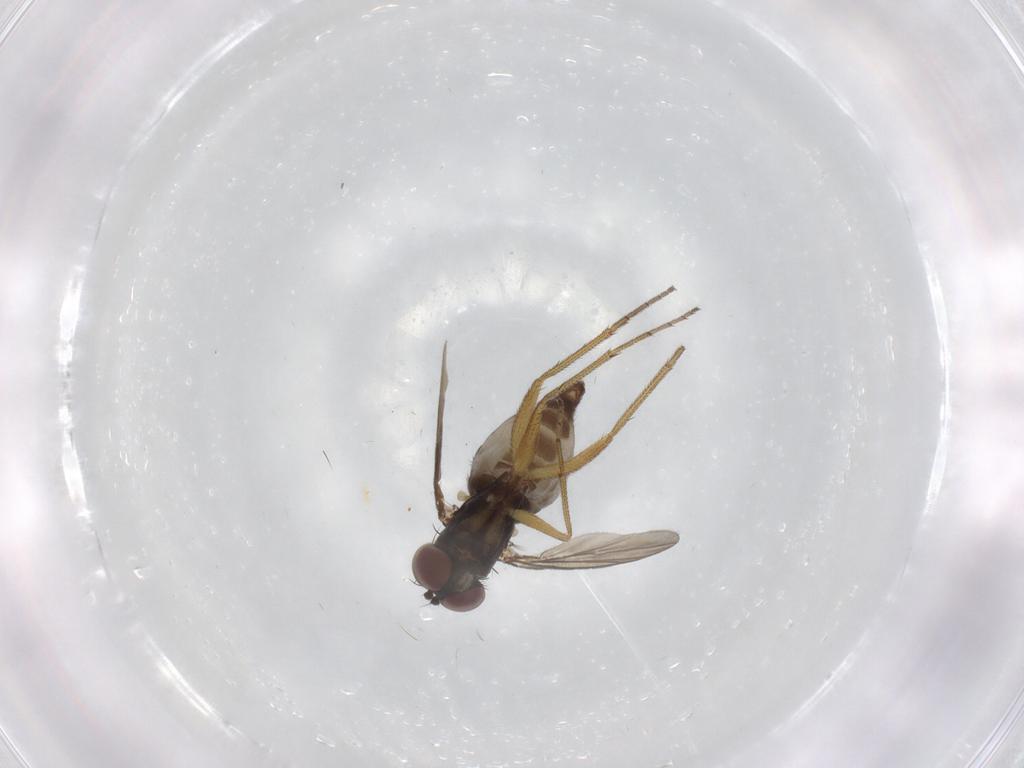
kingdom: Animalia
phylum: Arthropoda
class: Insecta
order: Diptera
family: Dolichopodidae
